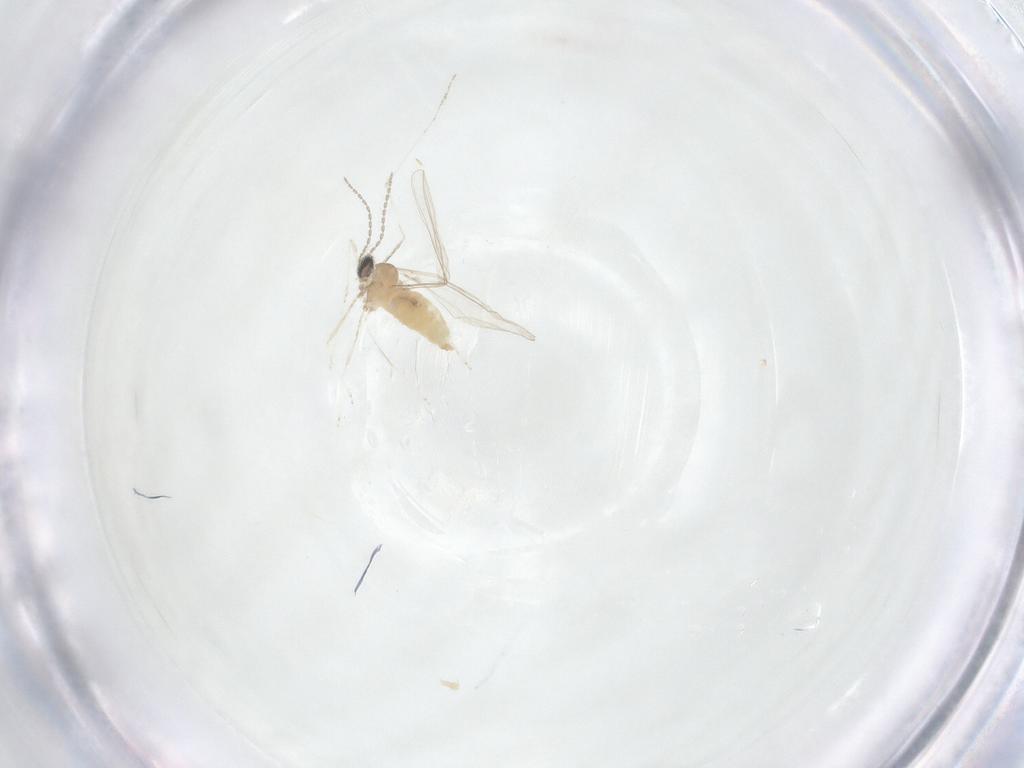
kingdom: Animalia
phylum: Arthropoda
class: Insecta
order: Diptera
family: Cecidomyiidae
